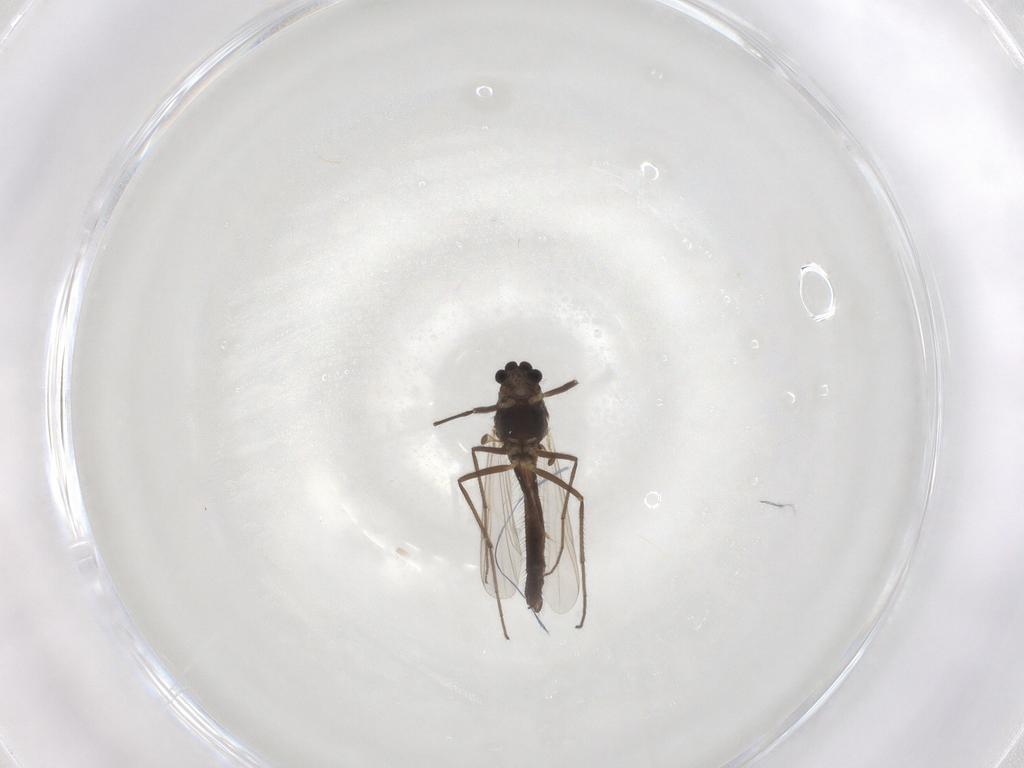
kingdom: Animalia
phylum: Arthropoda
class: Insecta
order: Diptera
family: Chironomidae
